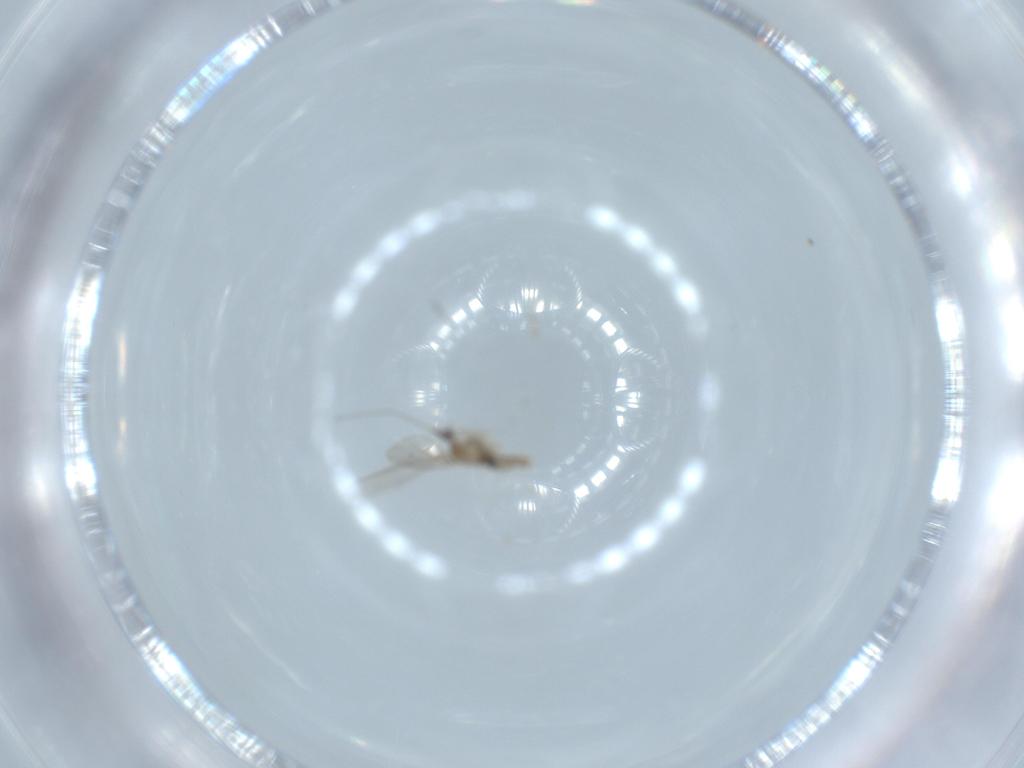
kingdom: Animalia
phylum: Arthropoda
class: Insecta
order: Diptera
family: Cecidomyiidae
